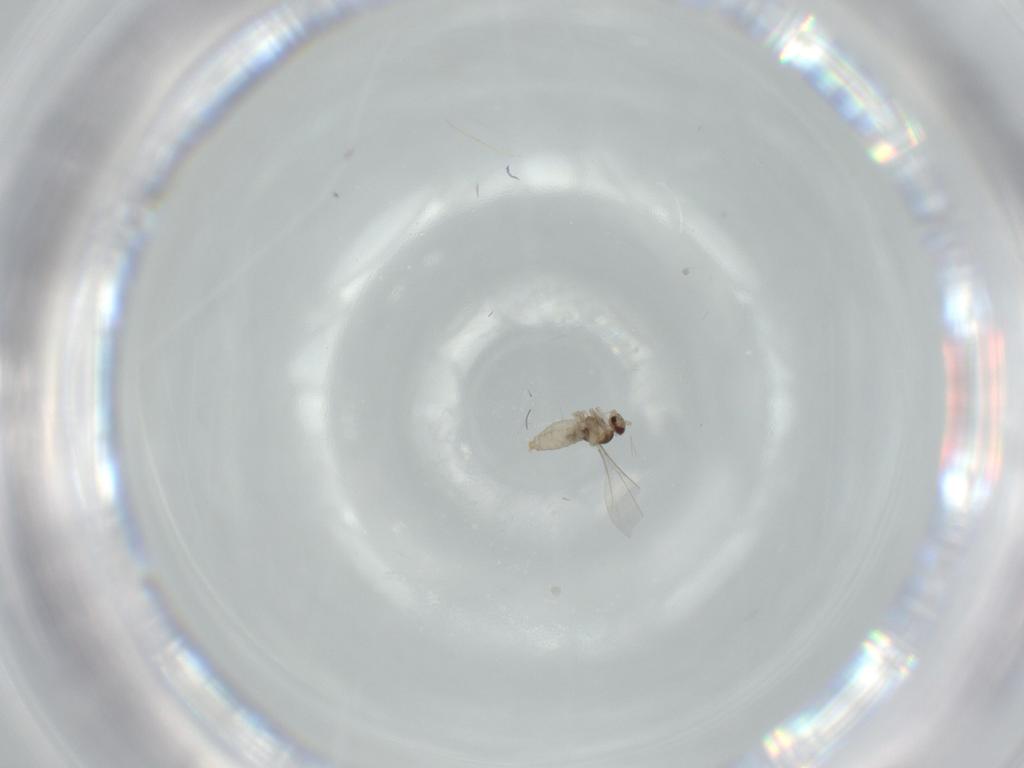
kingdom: Animalia
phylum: Arthropoda
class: Insecta
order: Diptera
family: Cecidomyiidae
